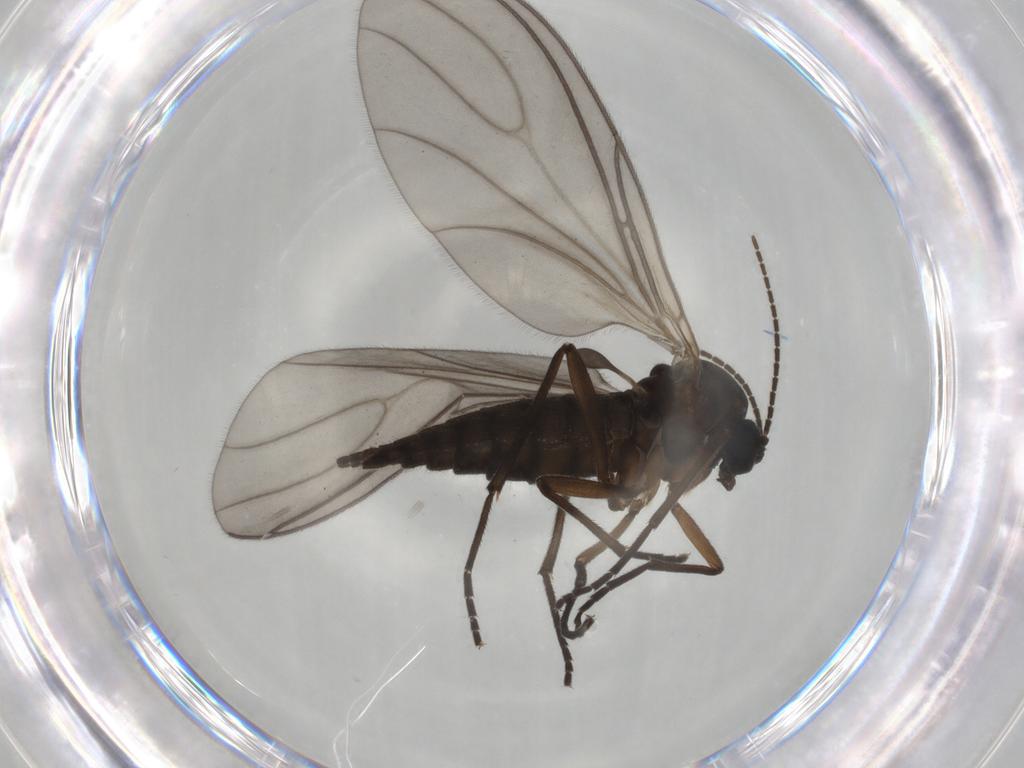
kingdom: Animalia
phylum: Arthropoda
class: Insecta
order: Diptera
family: Sciaridae
